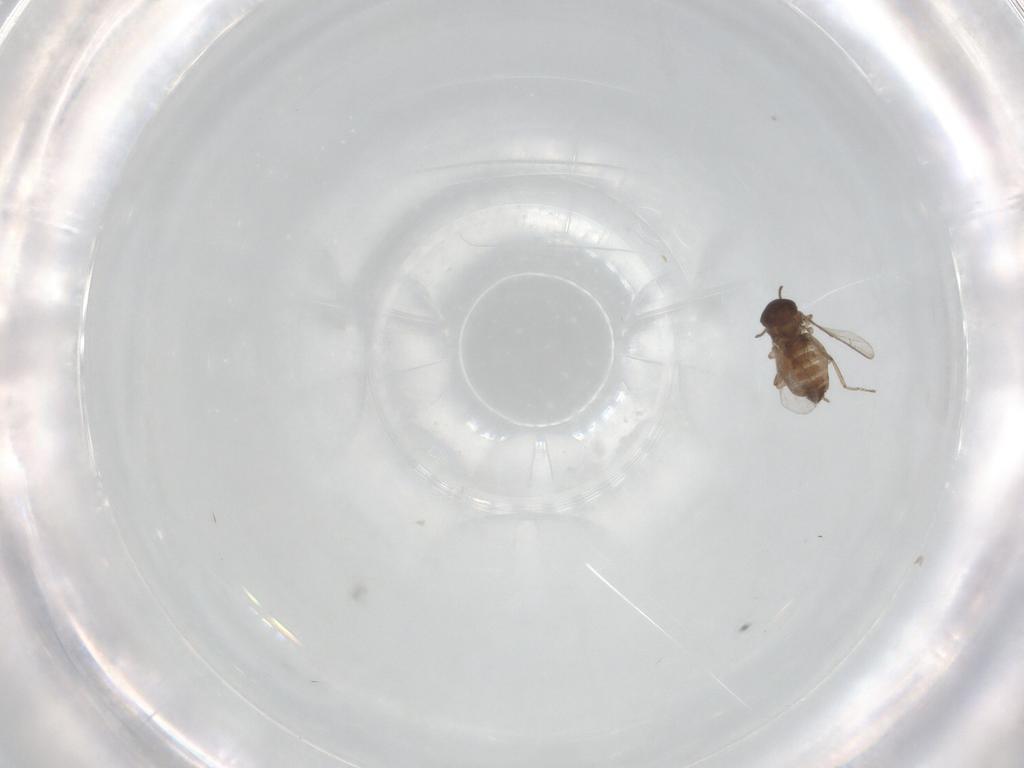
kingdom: Animalia
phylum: Arthropoda
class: Insecta
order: Diptera
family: Ceratopogonidae
